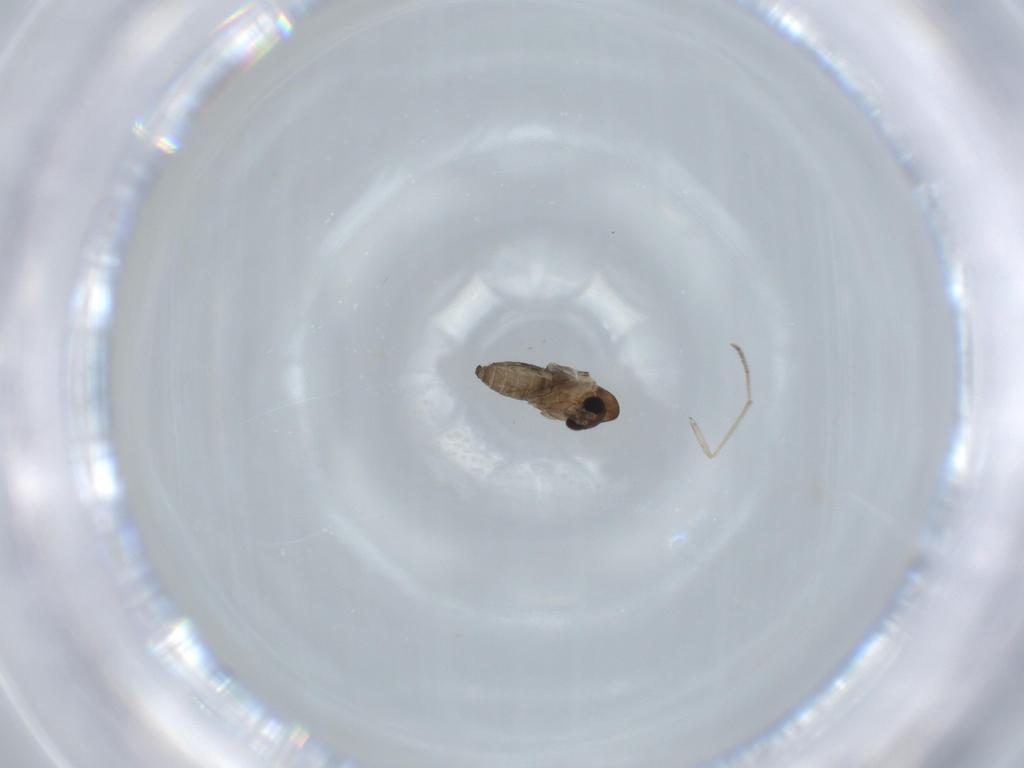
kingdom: Animalia
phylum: Arthropoda
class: Insecta
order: Diptera
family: Psychodidae
